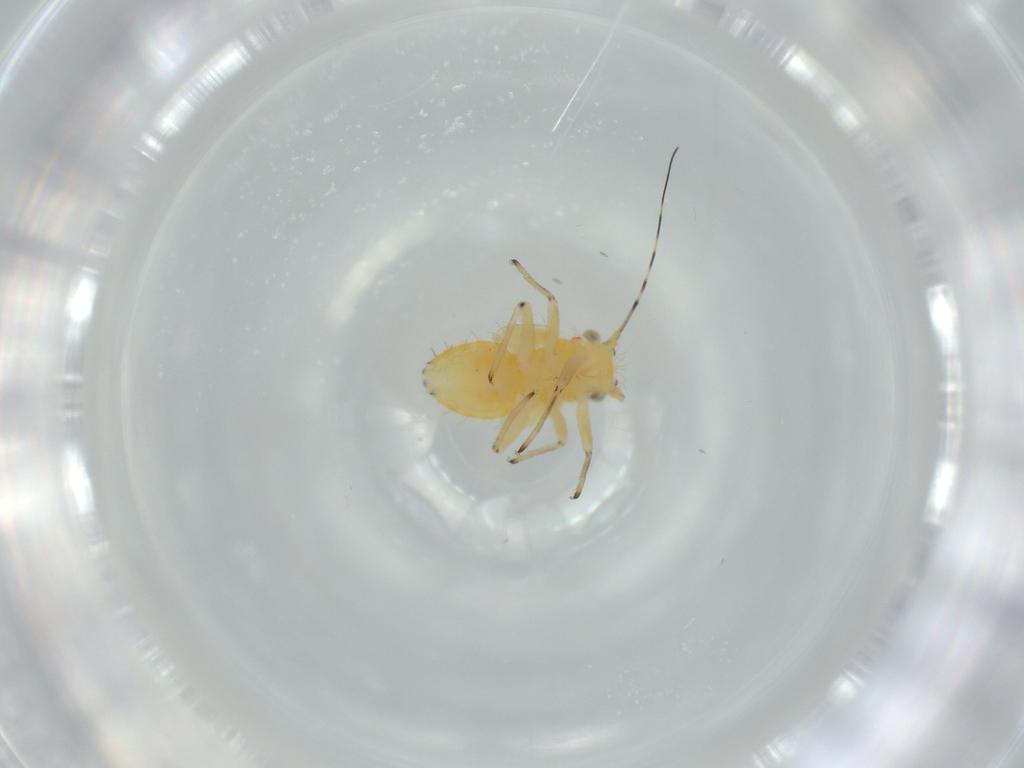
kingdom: Animalia
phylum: Arthropoda
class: Insecta
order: Hemiptera
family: Psyllidae
